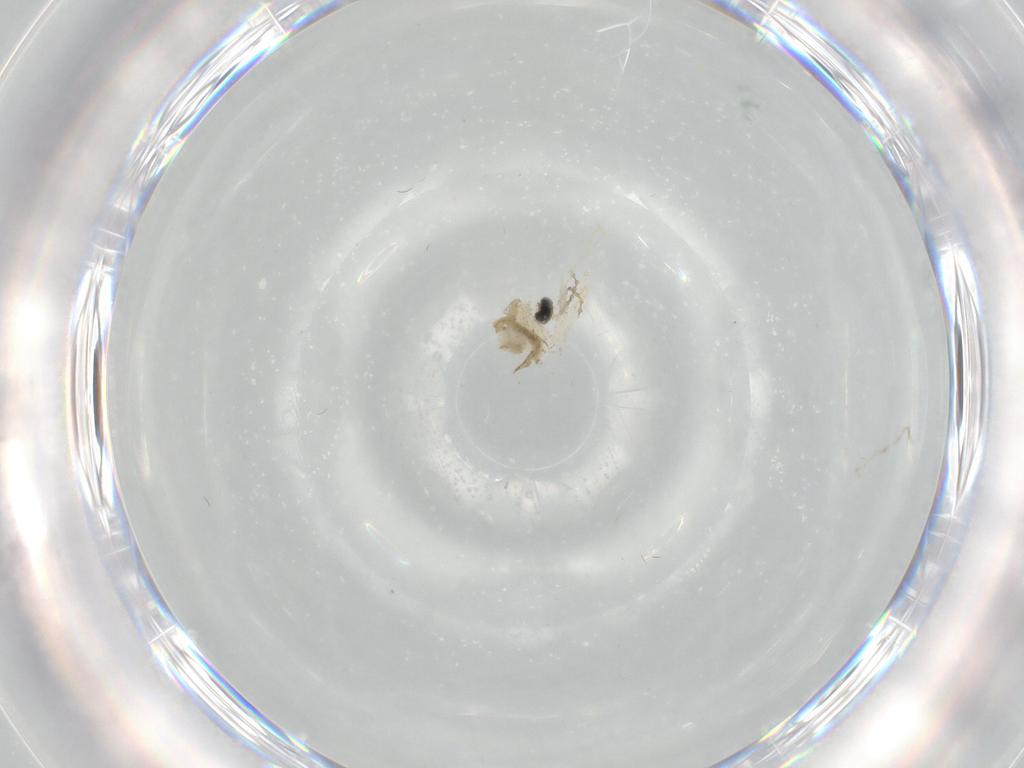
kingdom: Animalia
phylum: Arthropoda
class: Insecta
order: Diptera
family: Cecidomyiidae
